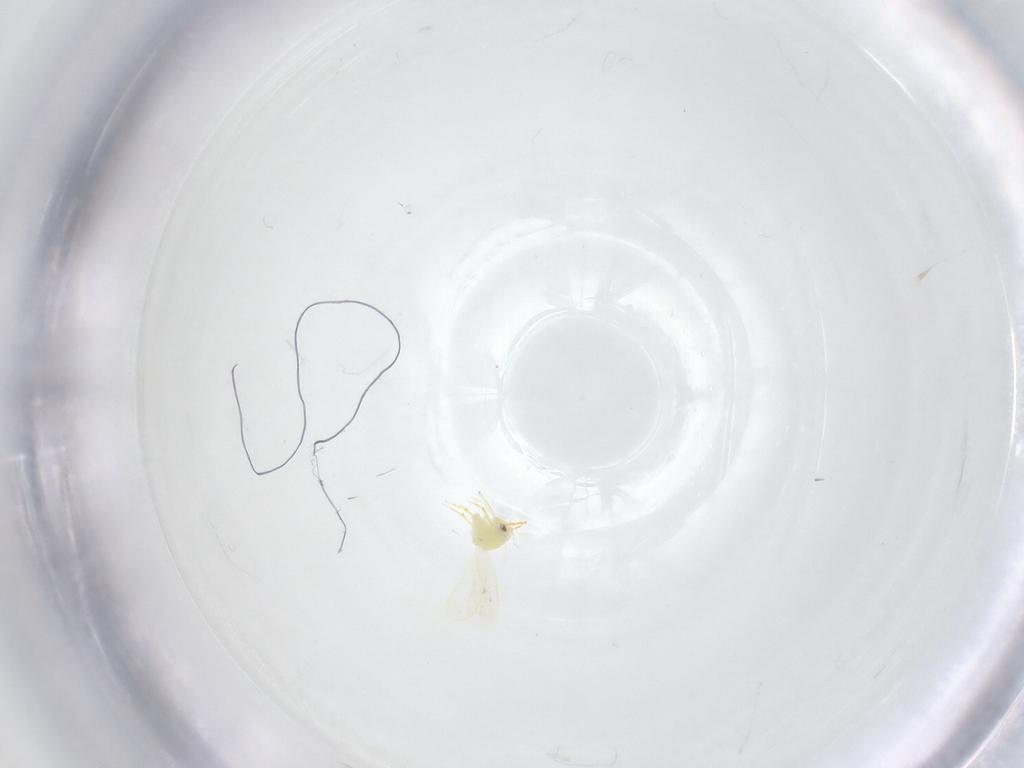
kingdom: Animalia
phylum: Arthropoda
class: Insecta
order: Hemiptera
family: Aleyrodidae
